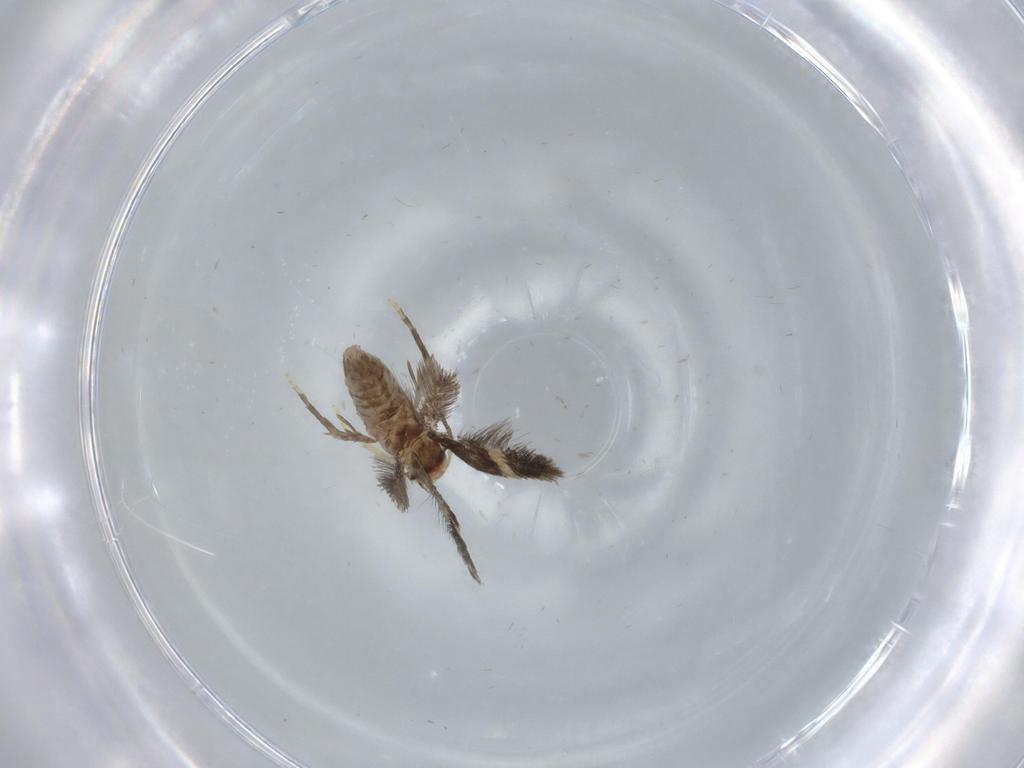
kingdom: Animalia
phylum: Arthropoda
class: Insecta
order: Lepidoptera
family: Nepticulidae
